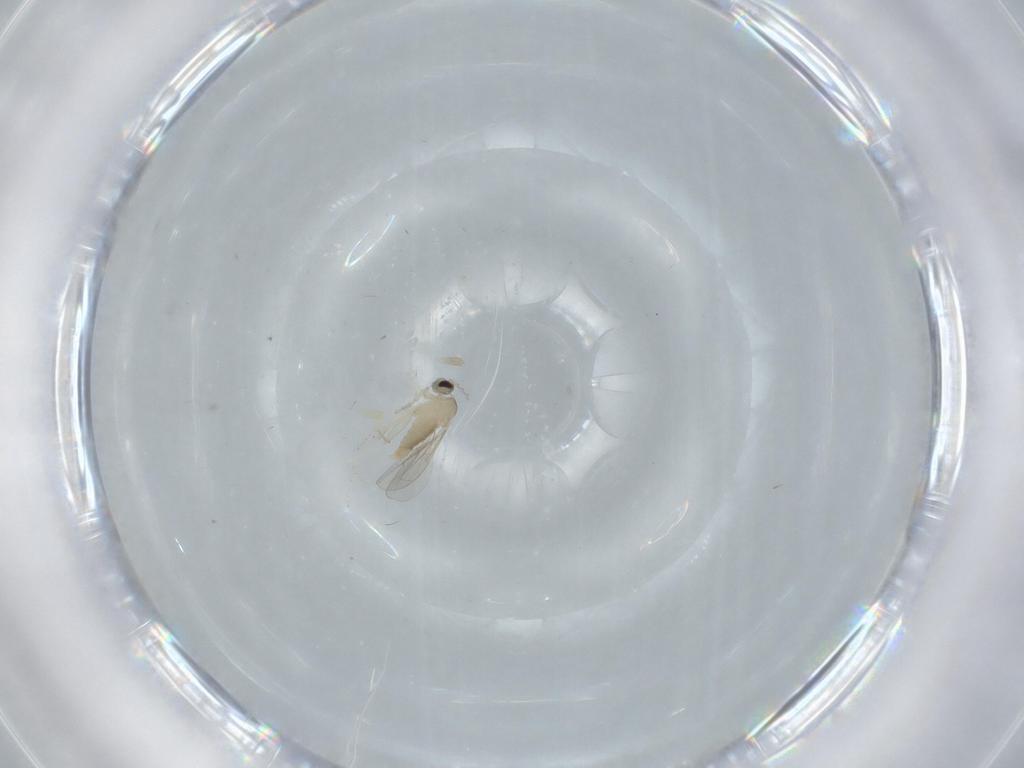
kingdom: Animalia
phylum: Arthropoda
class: Insecta
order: Diptera
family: Cecidomyiidae
